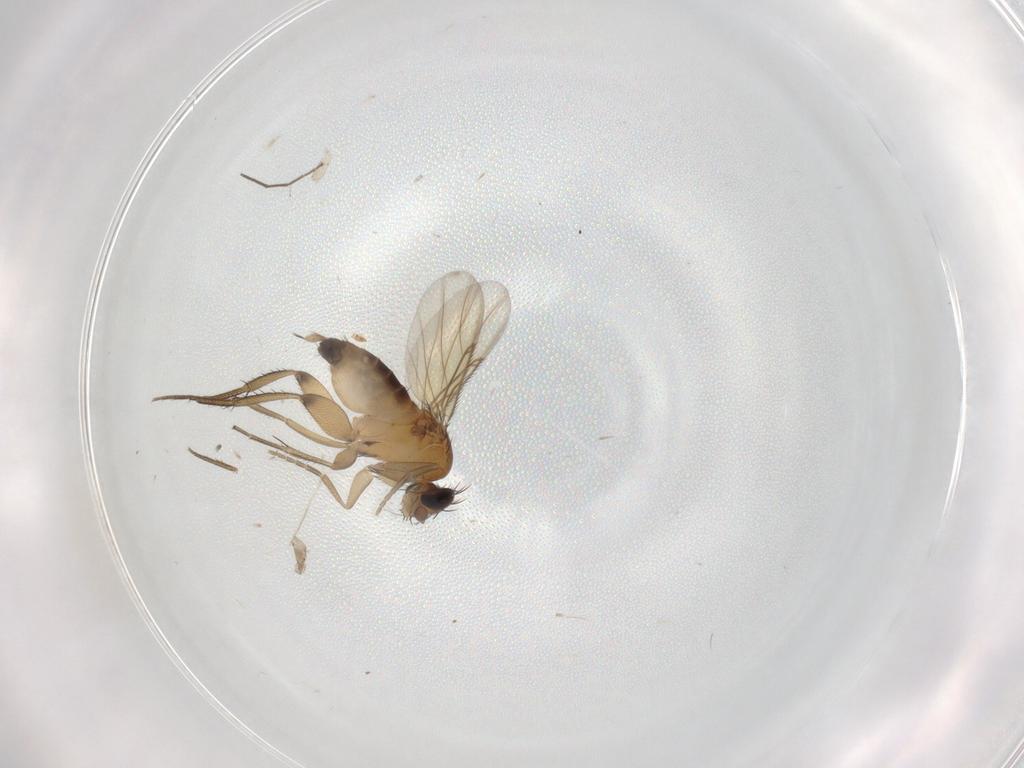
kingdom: Animalia
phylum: Arthropoda
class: Insecta
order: Diptera
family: Phoridae
